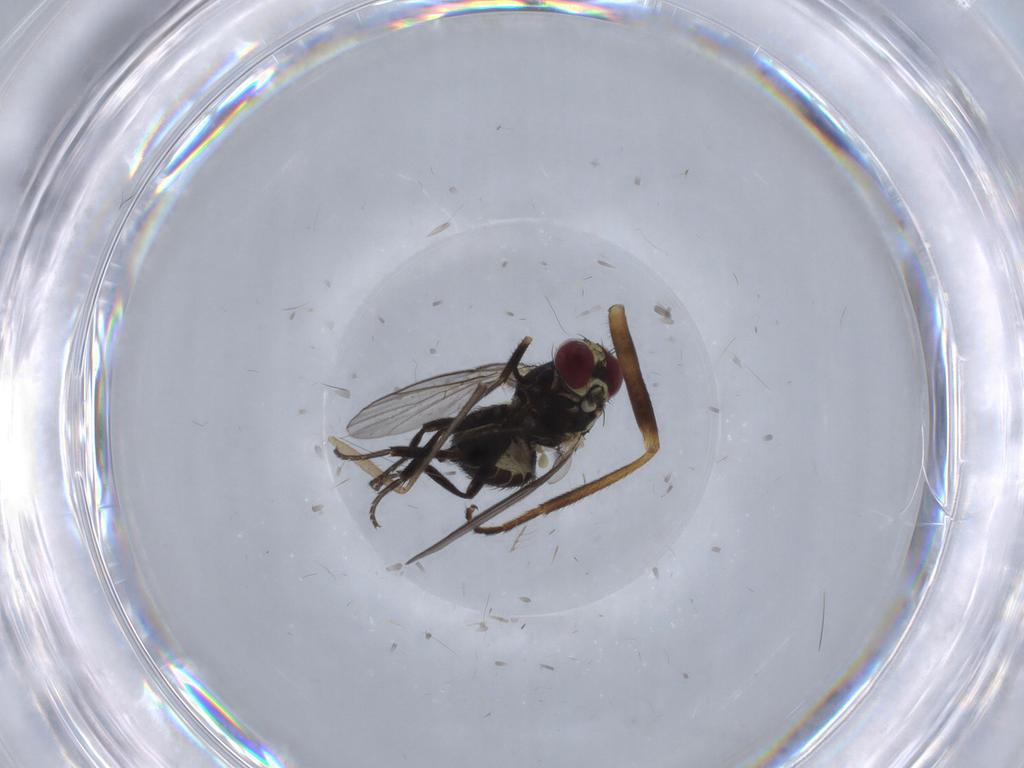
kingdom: Animalia
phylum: Arthropoda
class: Insecta
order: Diptera
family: Agromyzidae
